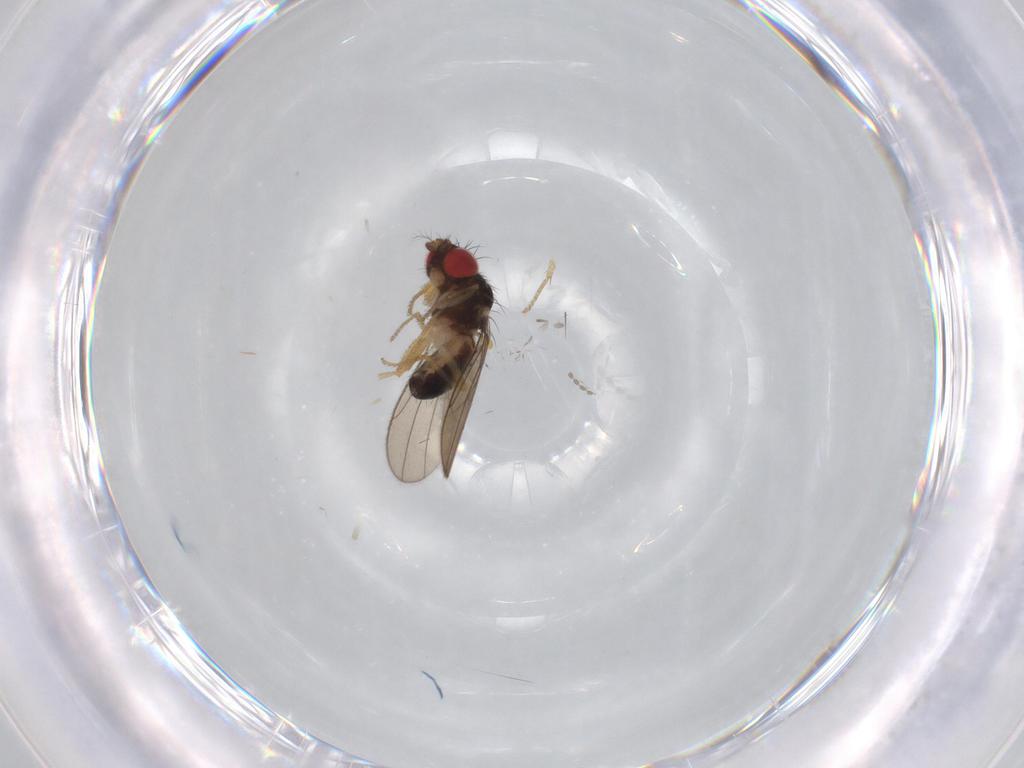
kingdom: Animalia
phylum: Arthropoda
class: Insecta
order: Diptera
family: Drosophilidae
